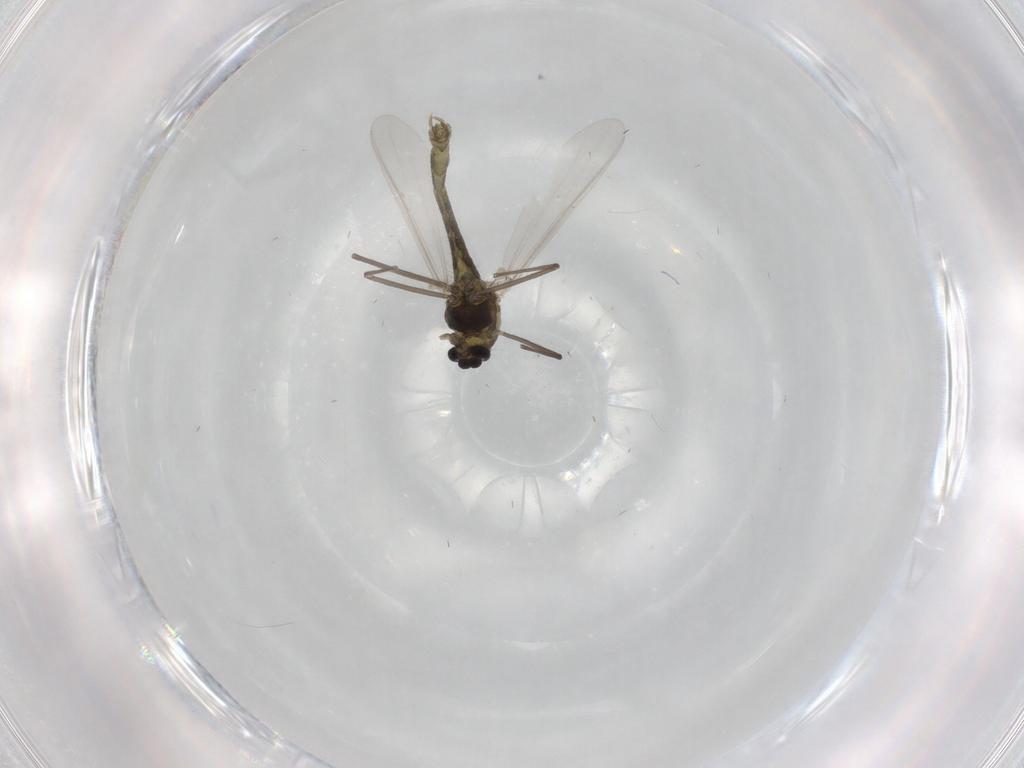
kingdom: Animalia
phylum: Arthropoda
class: Insecta
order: Diptera
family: Chironomidae
